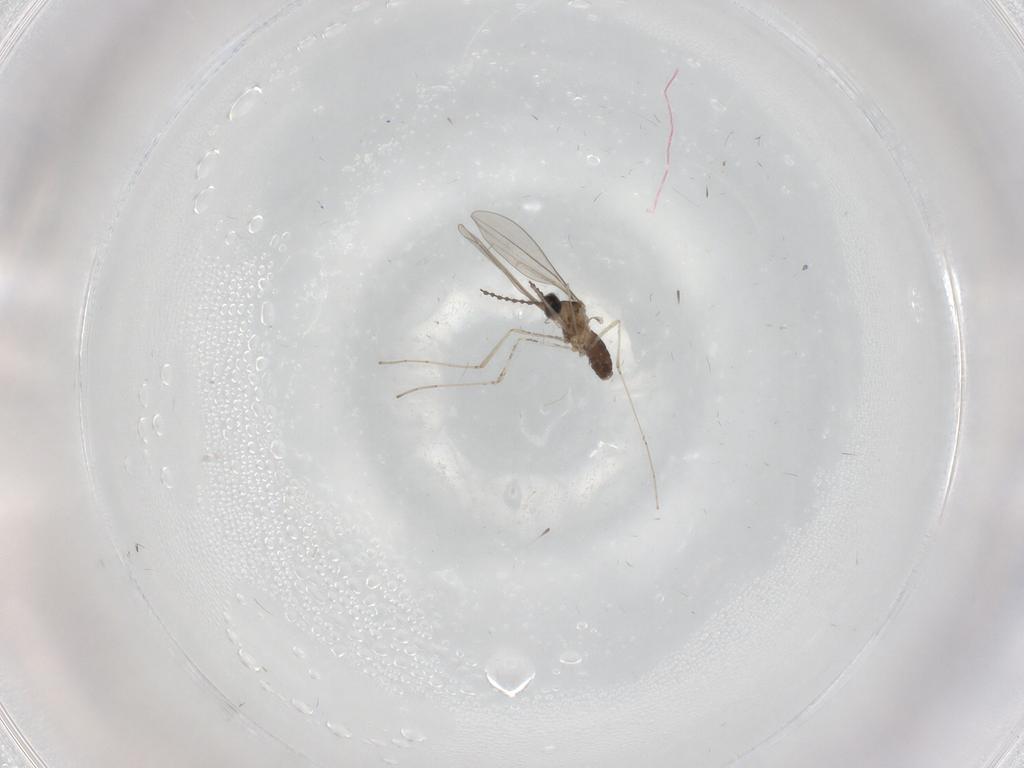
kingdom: Animalia
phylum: Arthropoda
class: Insecta
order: Diptera
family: Cecidomyiidae
